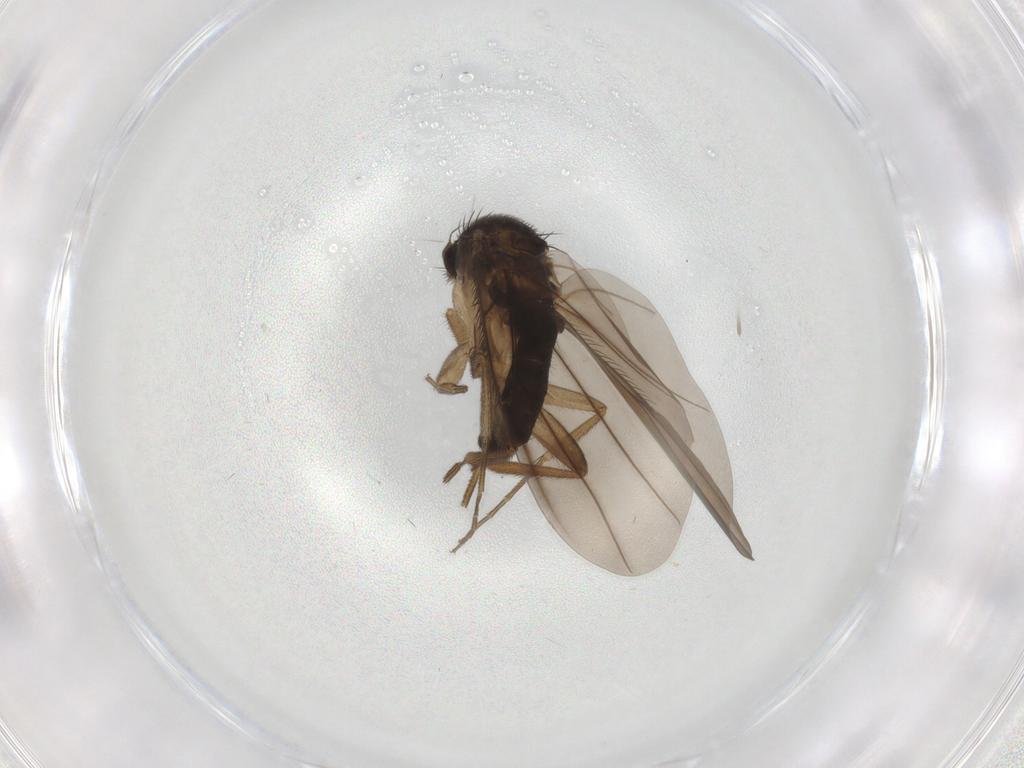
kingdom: Animalia
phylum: Arthropoda
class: Insecta
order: Diptera
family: Phoridae
